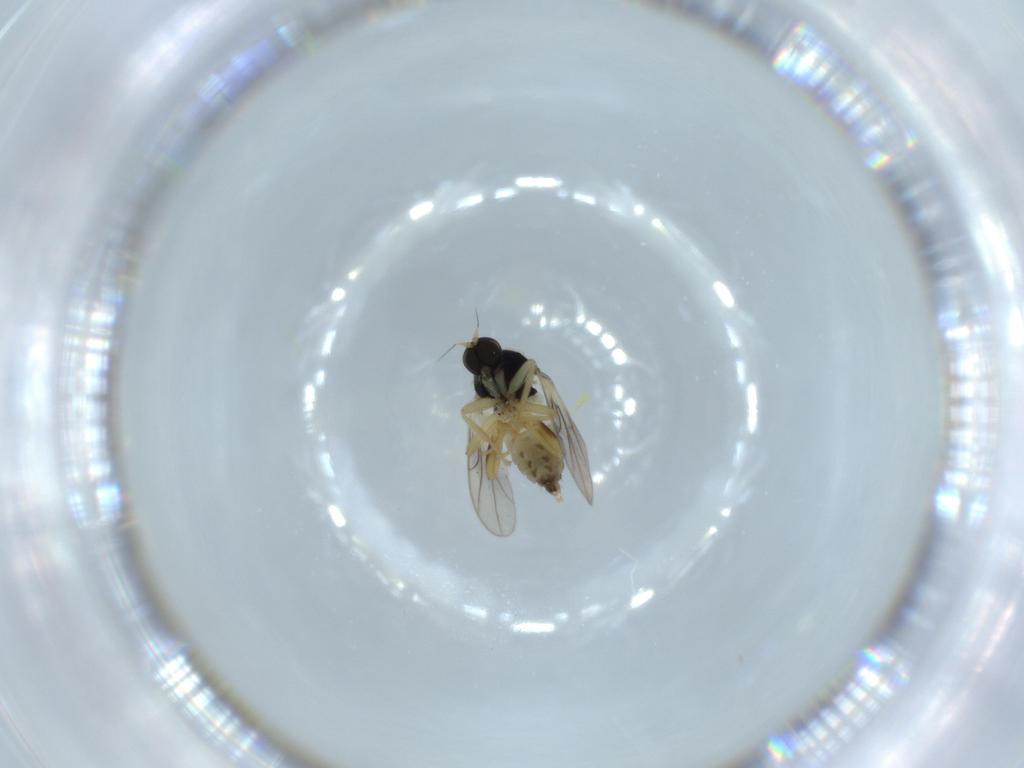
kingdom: Animalia
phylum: Arthropoda
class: Insecta
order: Diptera
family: Hybotidae
